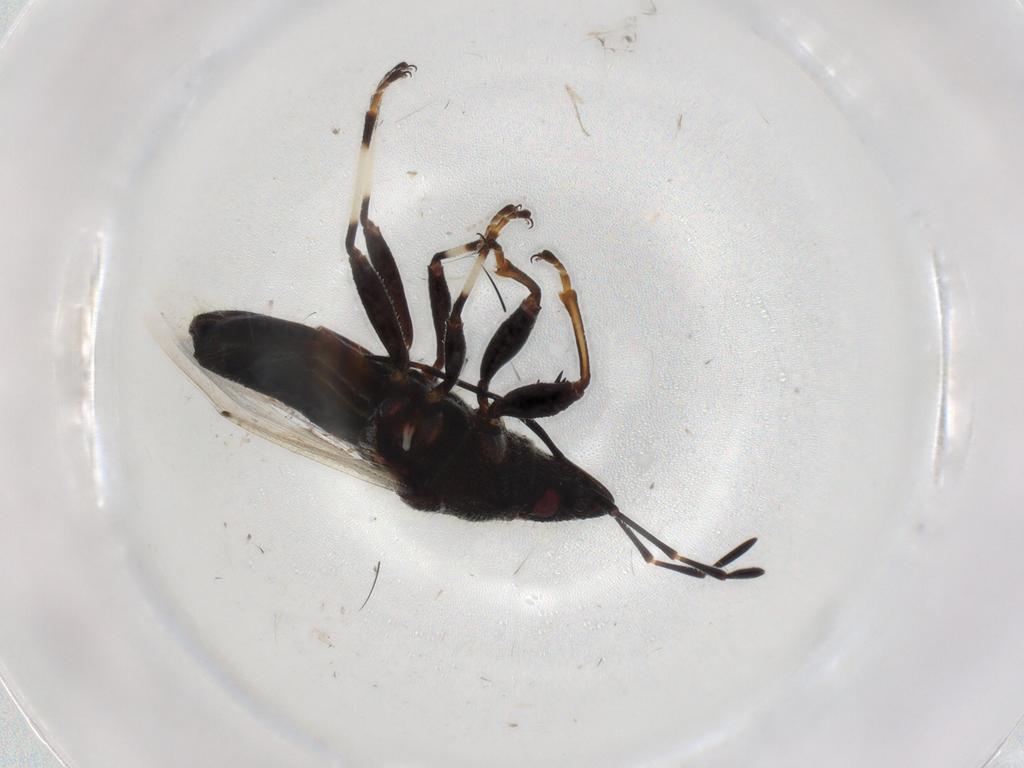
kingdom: Animalia
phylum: Arthropoda
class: Insecta
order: Hemiptera
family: Oxycarenidae
